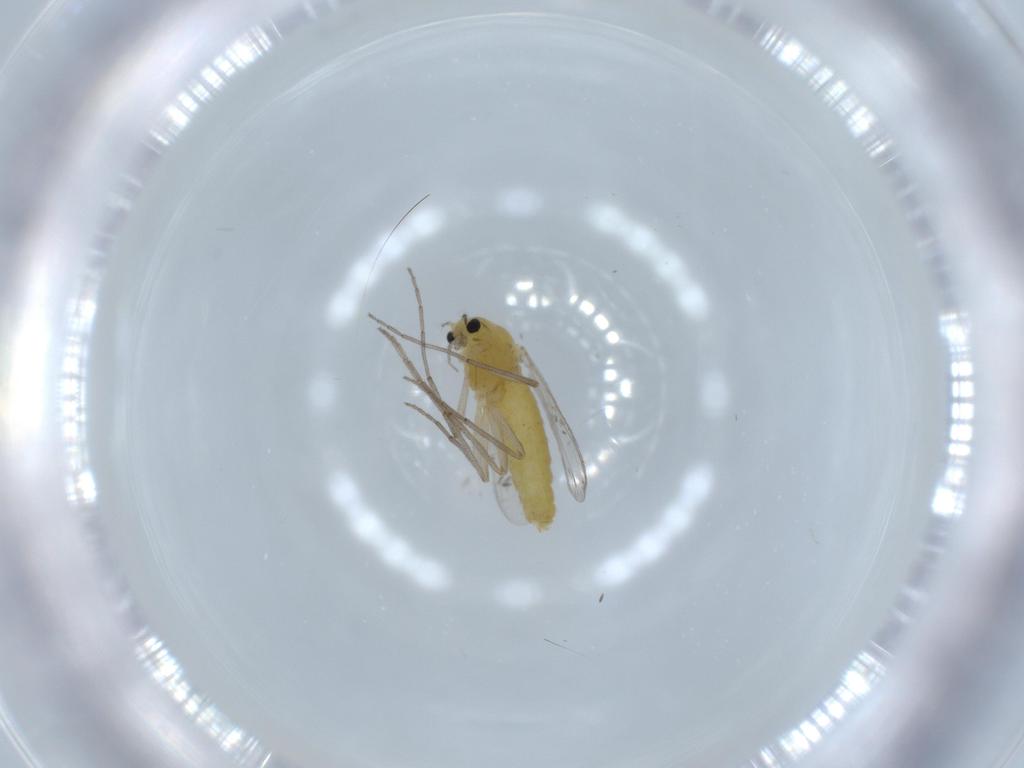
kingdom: Animalia
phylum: Arthropoda
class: Insecta
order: Diptera
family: Chironomidae
